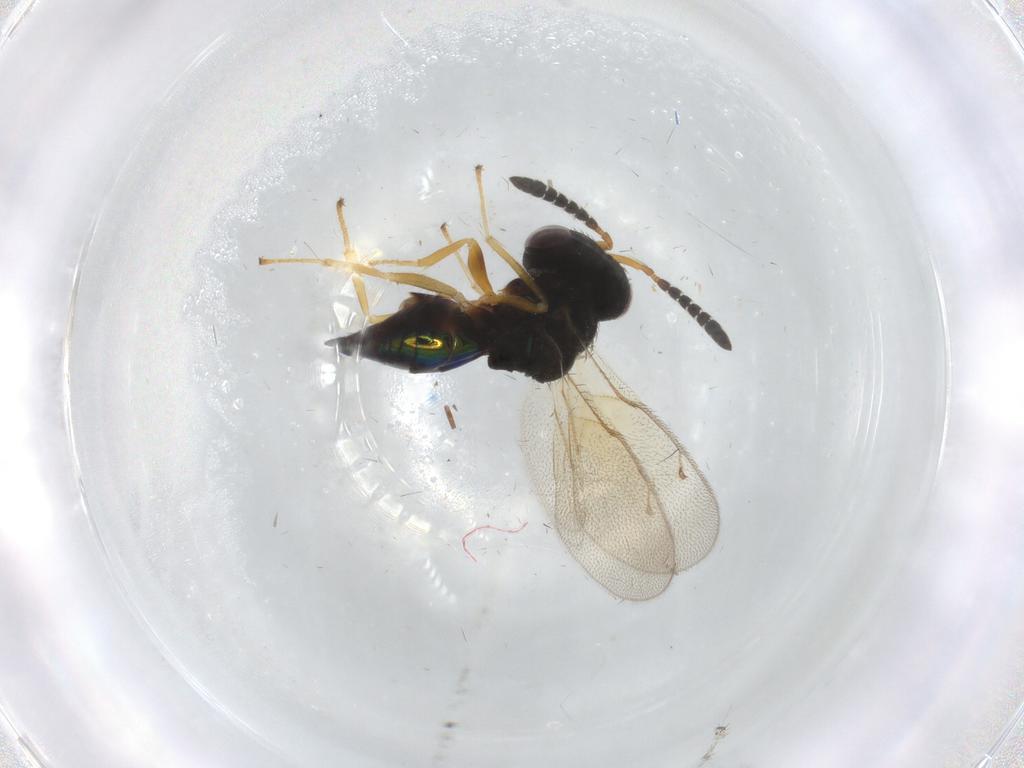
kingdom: Animalia
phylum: Arthropoda
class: Insecta
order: Hymenoptera
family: Pteromalidae
